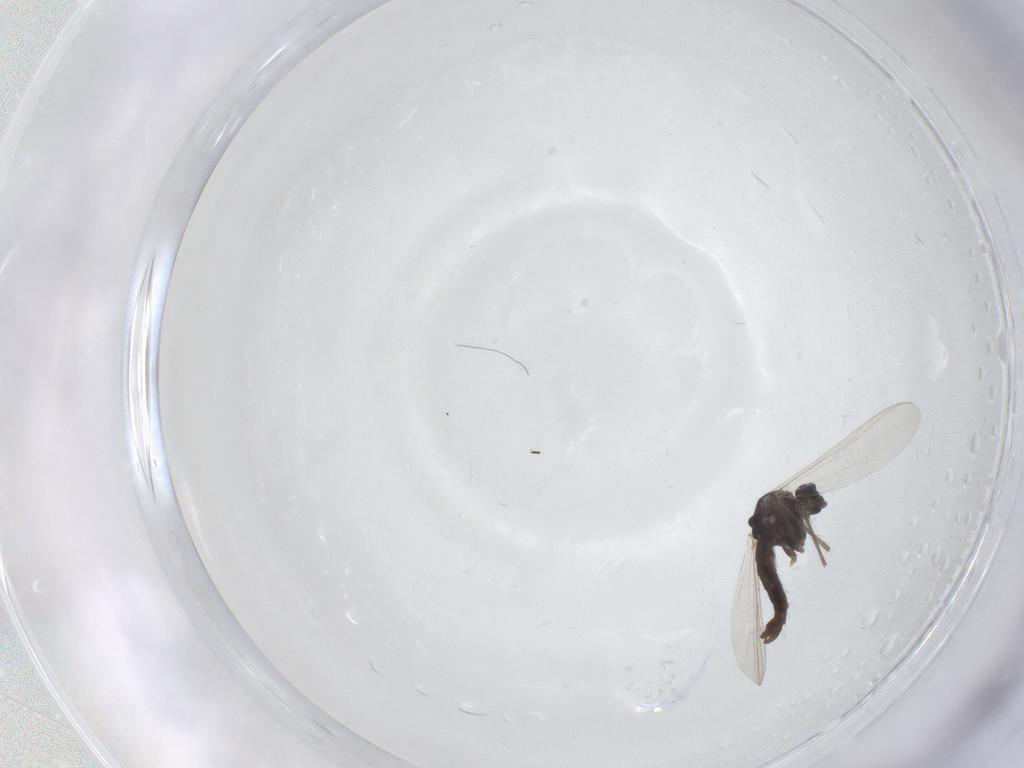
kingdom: Animalia
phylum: Arthropoda
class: Insecta
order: Diptera
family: Chironomidae
